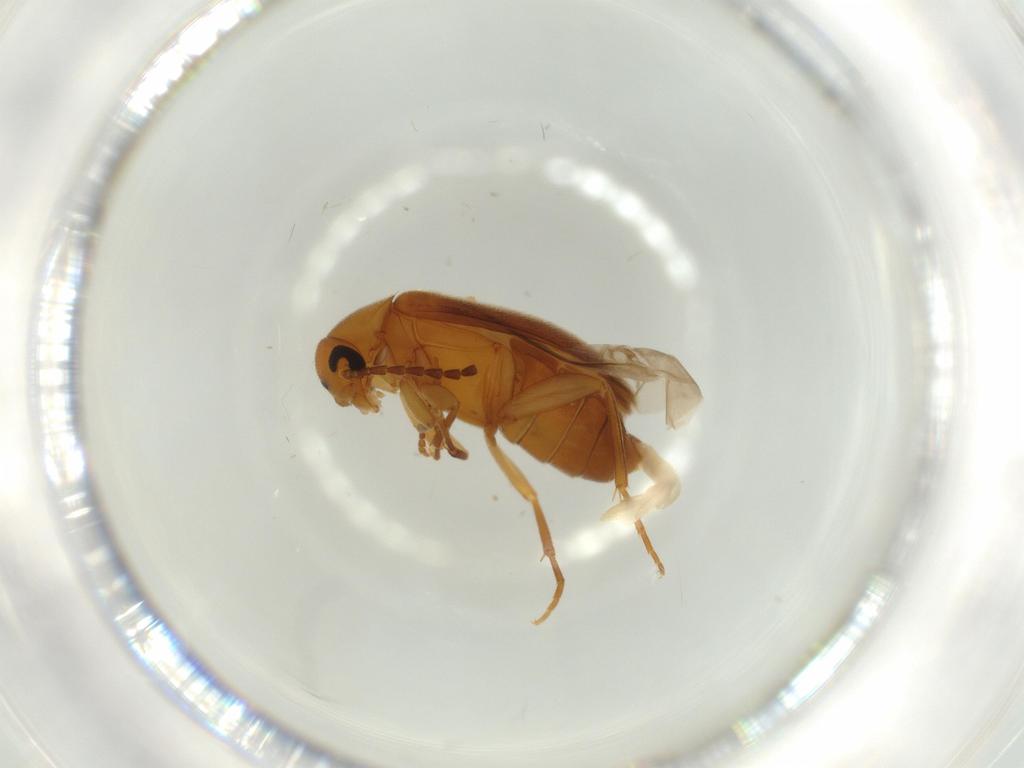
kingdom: Animalia
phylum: Arthropoda
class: Insecta
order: Coleoptera
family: Scraptiidae
